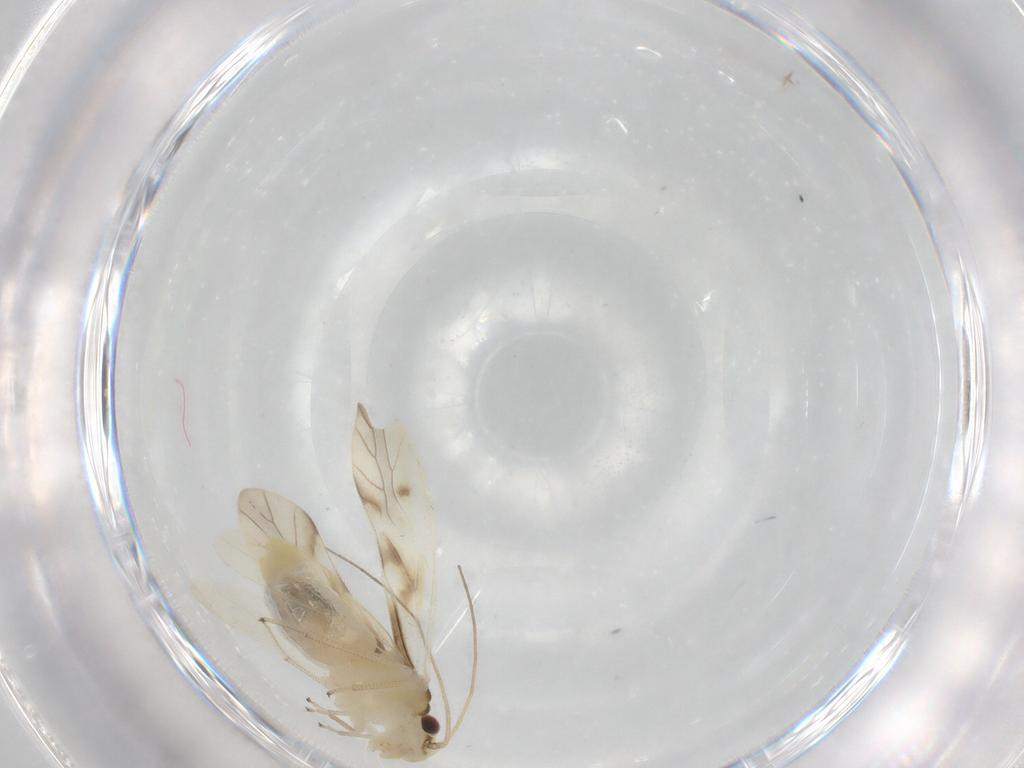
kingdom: Animalia
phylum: Arthropoda
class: Insecta
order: Psocodea
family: Caeciliusidae
